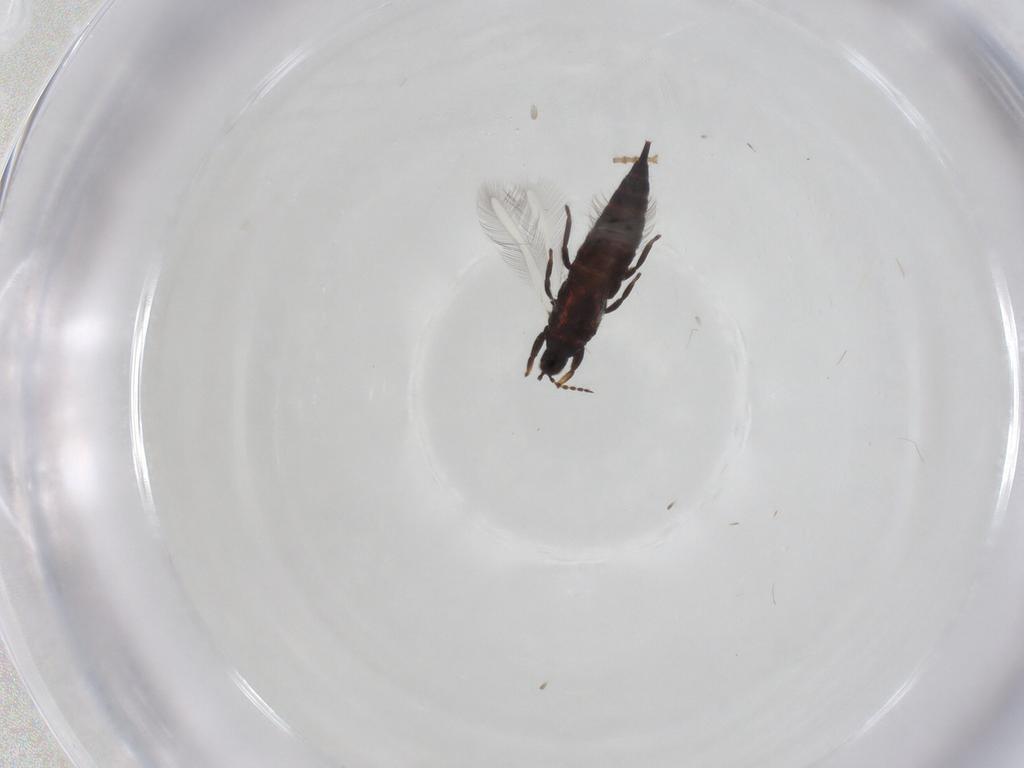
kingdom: Animalia
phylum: Arthropoda
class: Insecta
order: Thysanoptera
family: Phlaeothripidae
